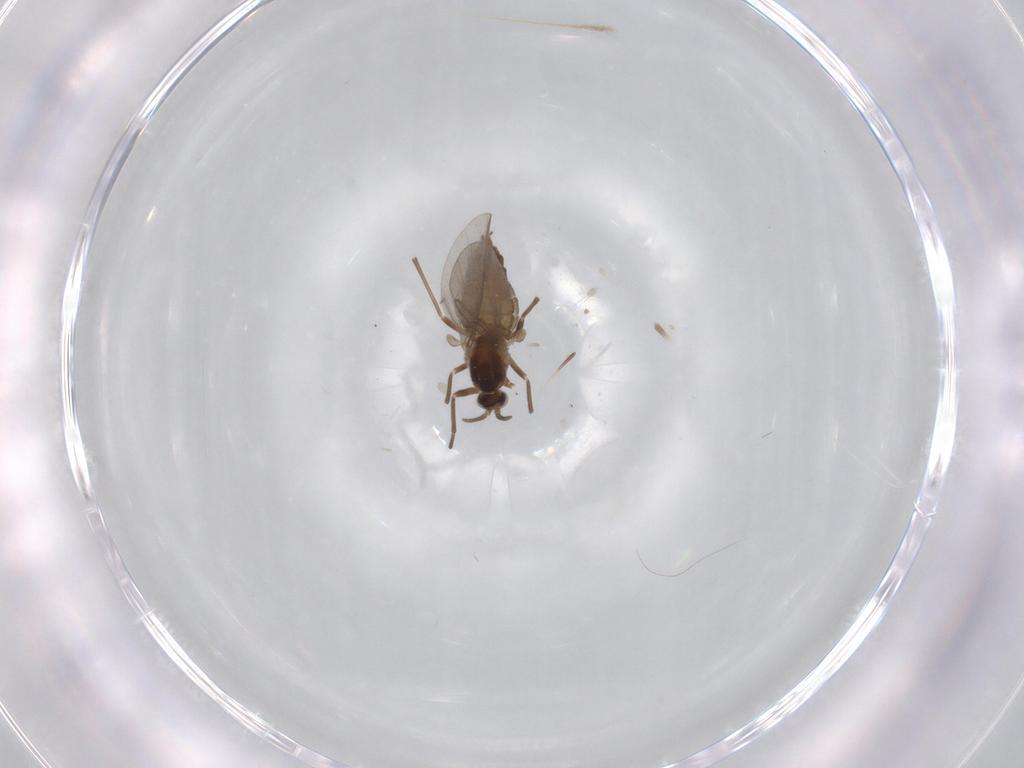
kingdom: Animalia
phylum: Arthropoda
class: Insecta
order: Diptera
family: Cecidomyiidae
